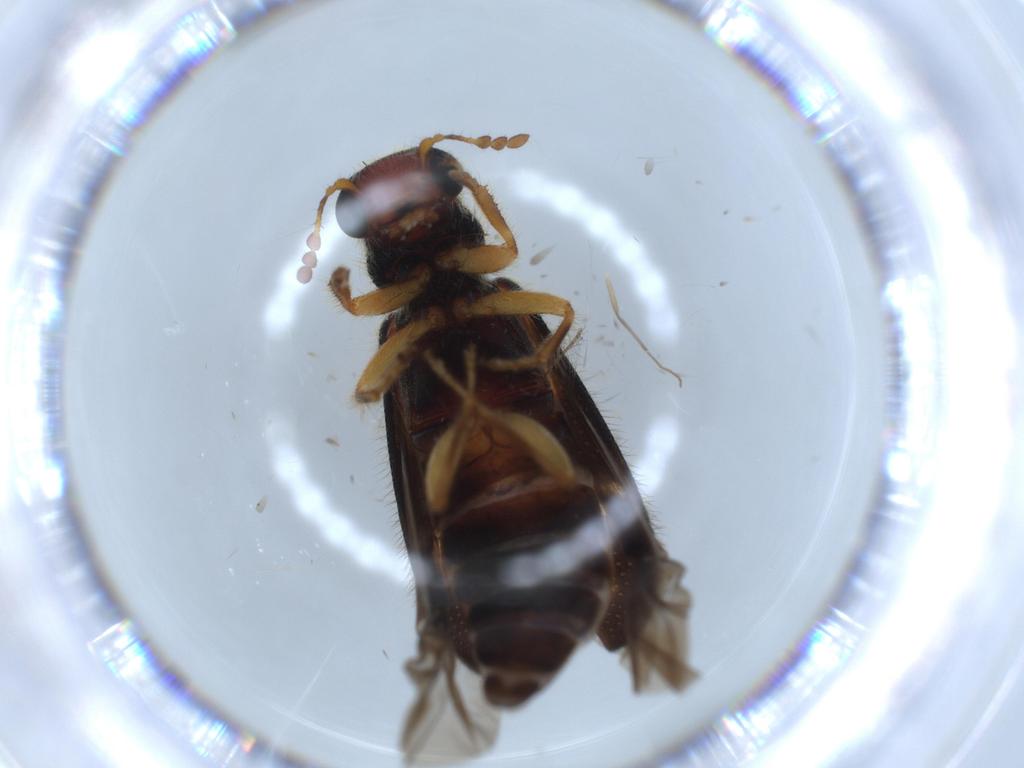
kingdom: Animalia
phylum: Arthropoda
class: Insecta
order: Coleoptera
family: Cleridae
